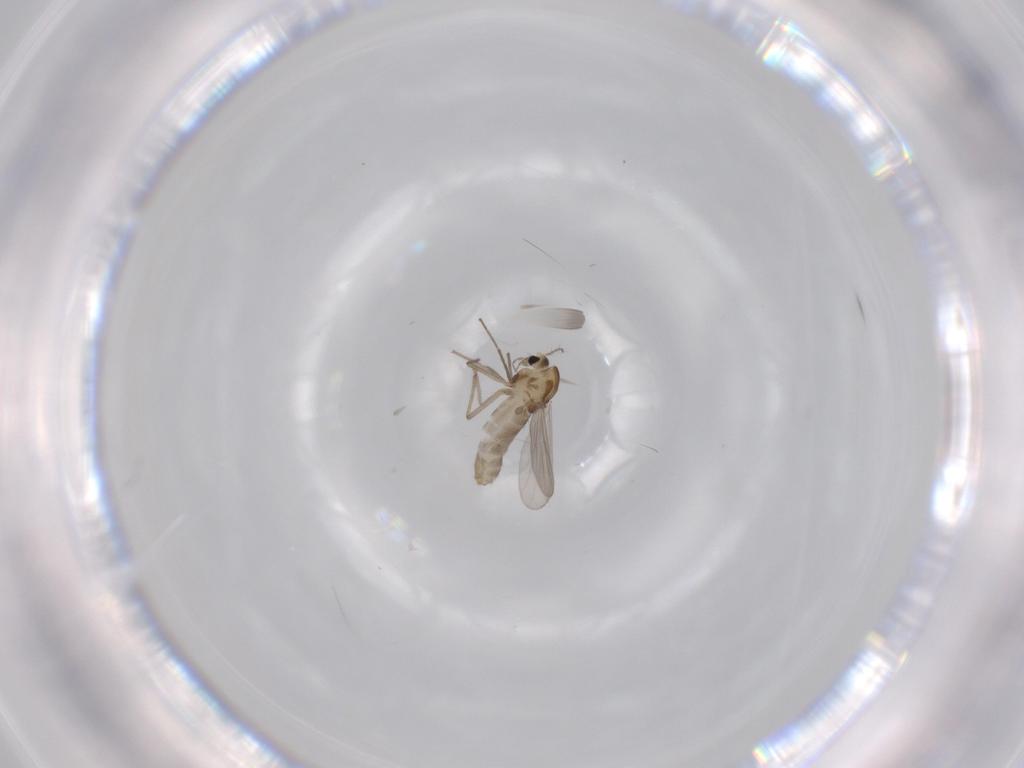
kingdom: Animalia
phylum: Arthropoda
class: Insecta
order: Diptera
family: Chironomidae
